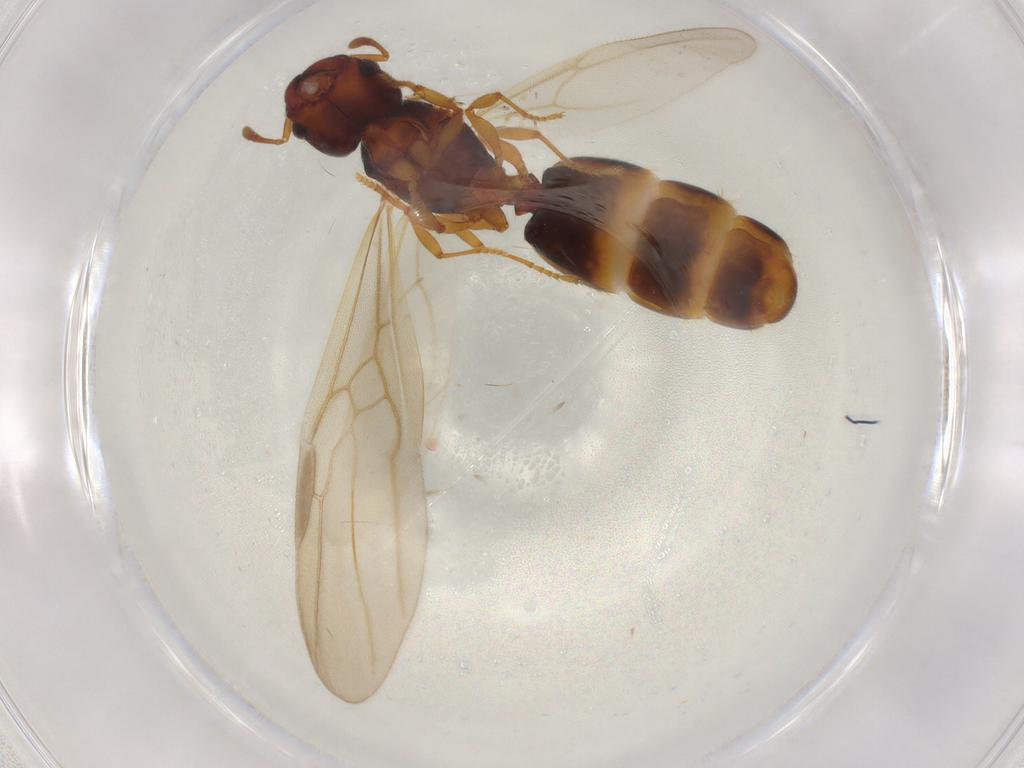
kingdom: Animalia
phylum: Arthropoda
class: Insecta
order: Hymenoptera
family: Formicidae
